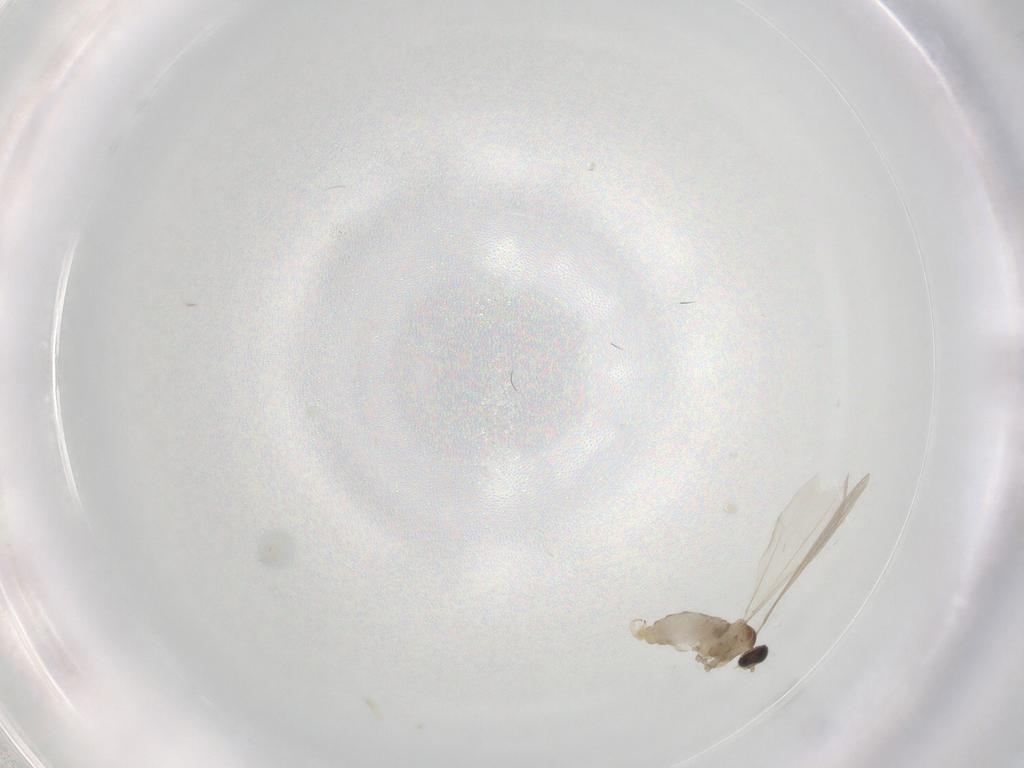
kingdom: Animalia
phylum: Arthropoda
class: Insecta
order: Diptera
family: Cecidomyiidae
